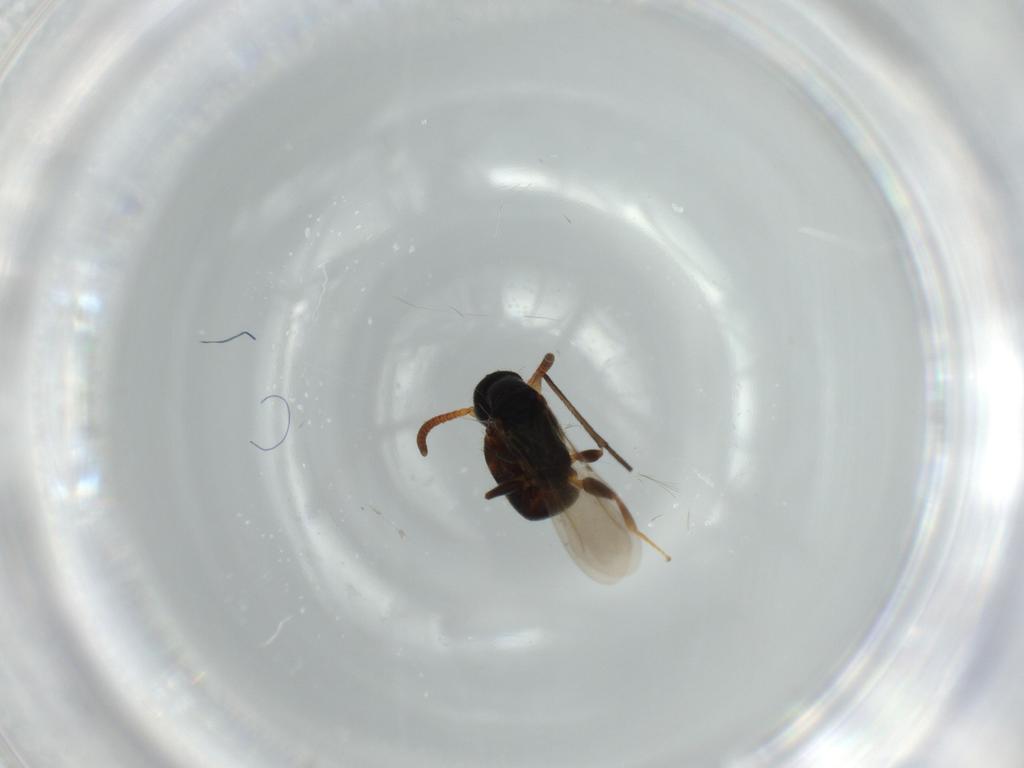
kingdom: Animalia
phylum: Arthropoda
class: Insecta
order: Hymenoptera
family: Bethylidae
